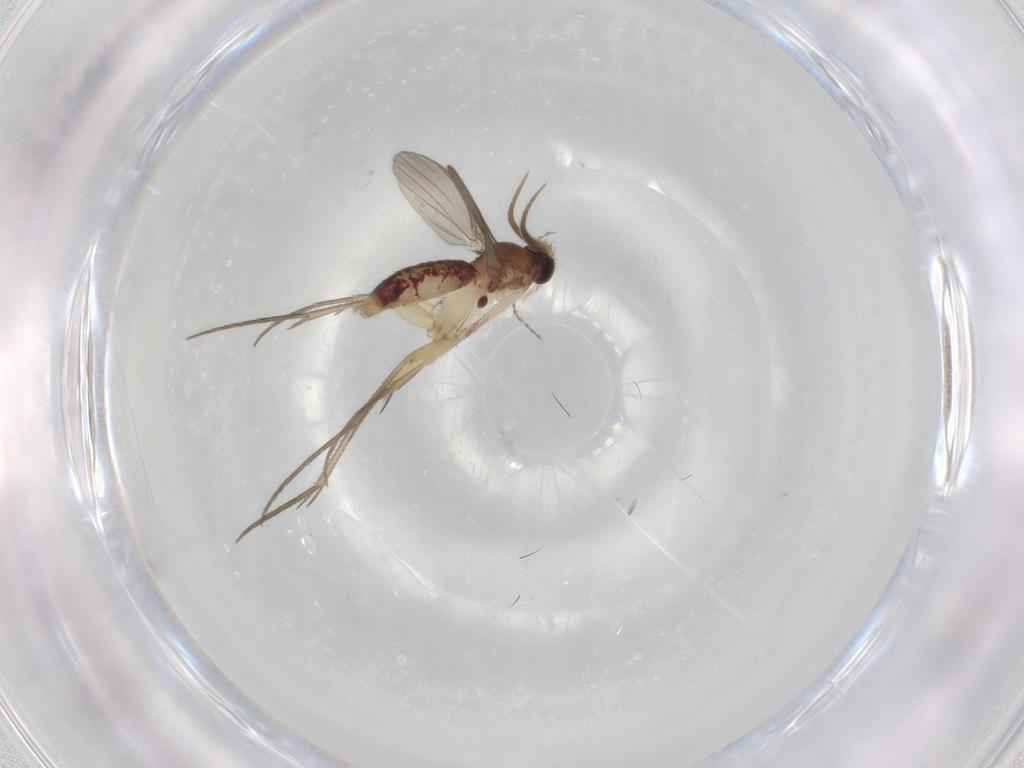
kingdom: Animalia
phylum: Arthropoda
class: Insecta
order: Diptera
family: Mycetophilidae
